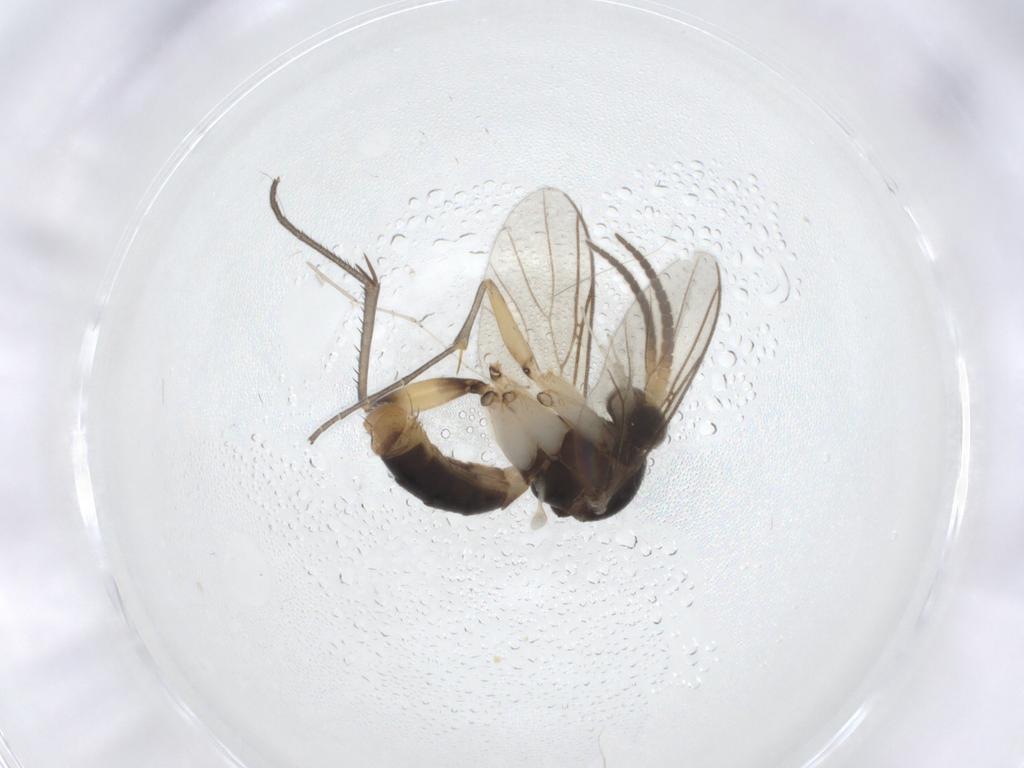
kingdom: Animalia
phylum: Arthropoda
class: Insecta
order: Diptera
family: Mycetophilidae
